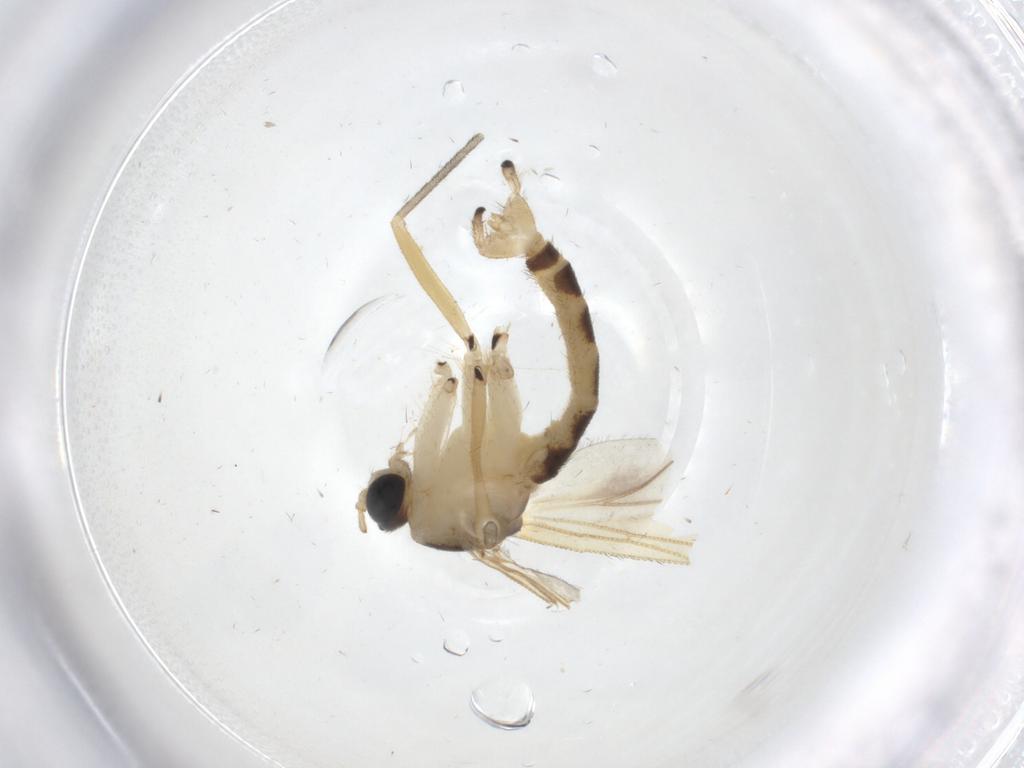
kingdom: Animalia
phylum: Arthropoda
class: Insecta
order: Diptera
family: Sciaridae
